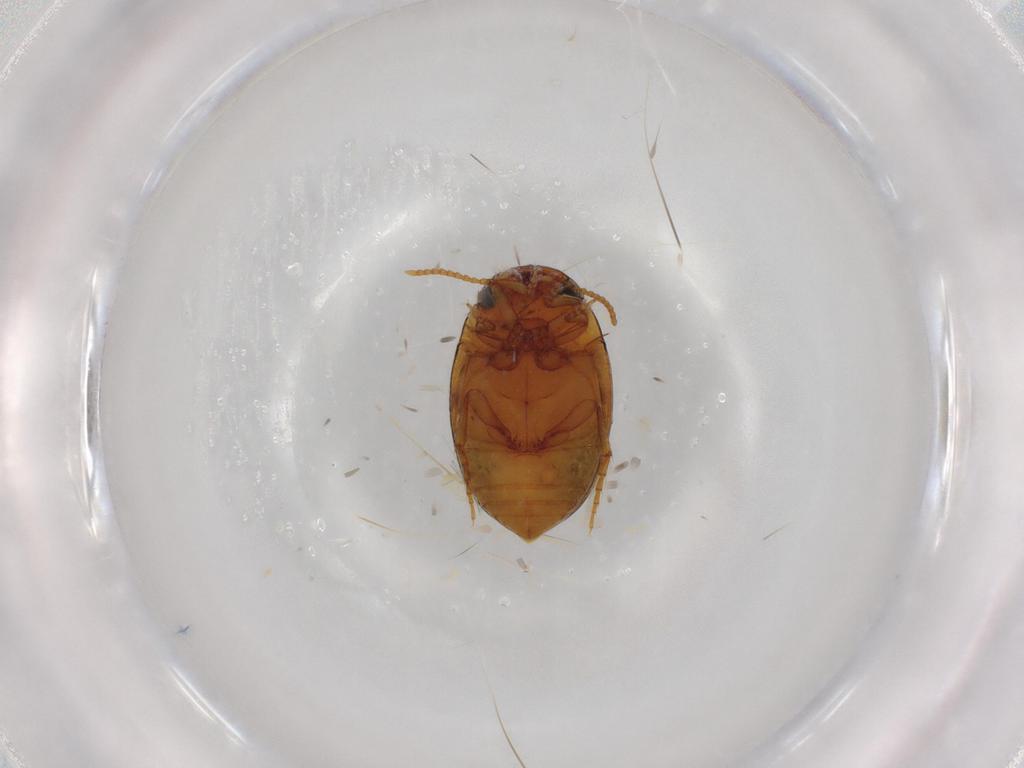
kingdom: Animalia
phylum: Arthropoda
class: Insecta
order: Coleoptera
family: Dytiscidae
